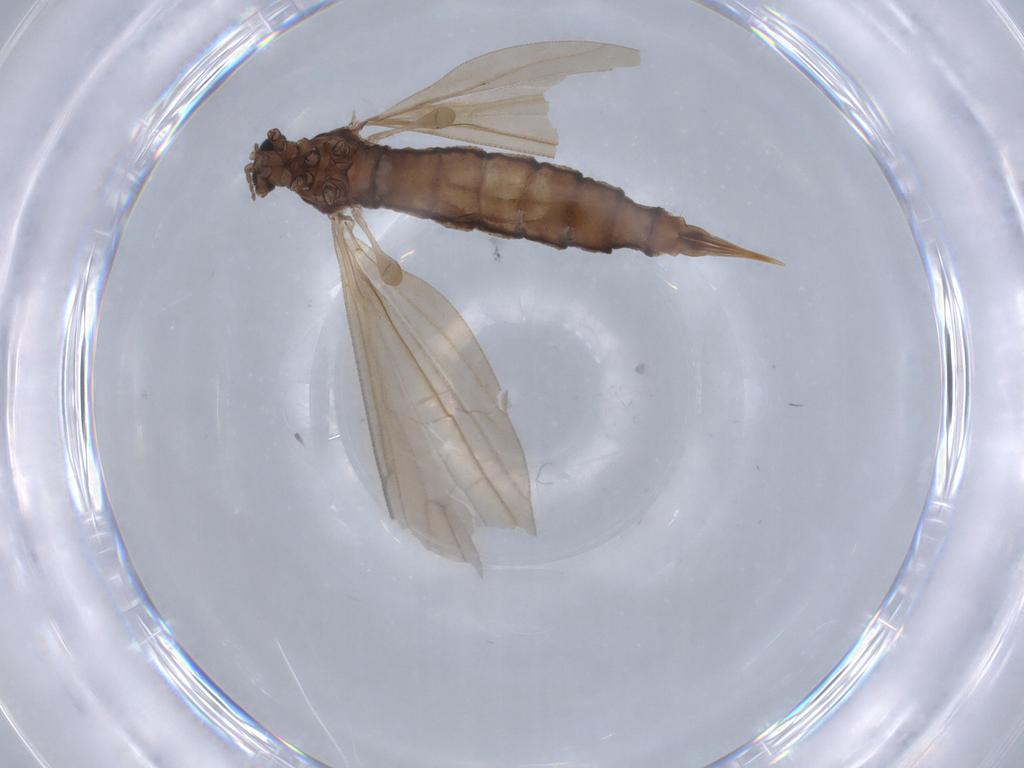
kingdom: Animalia
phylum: Arthropoda
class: Insecta
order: Diptera
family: Limoniidae
